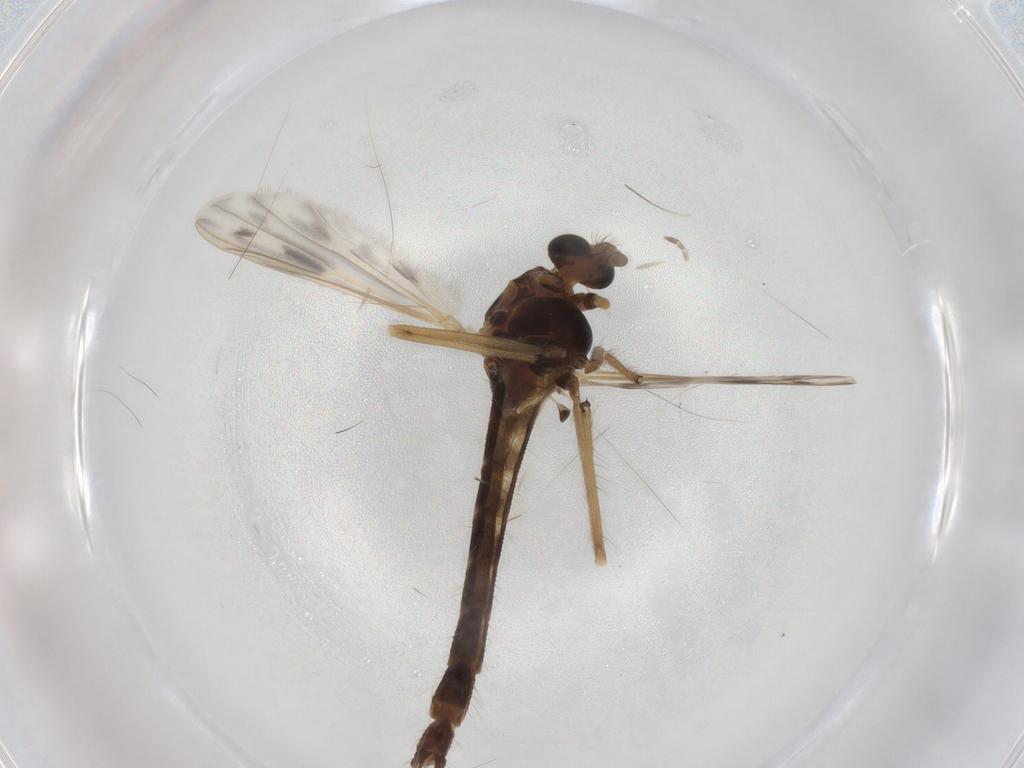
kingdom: Animalia
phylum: Arthropoda
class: Insecta
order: Diptera
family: Chironomidae
